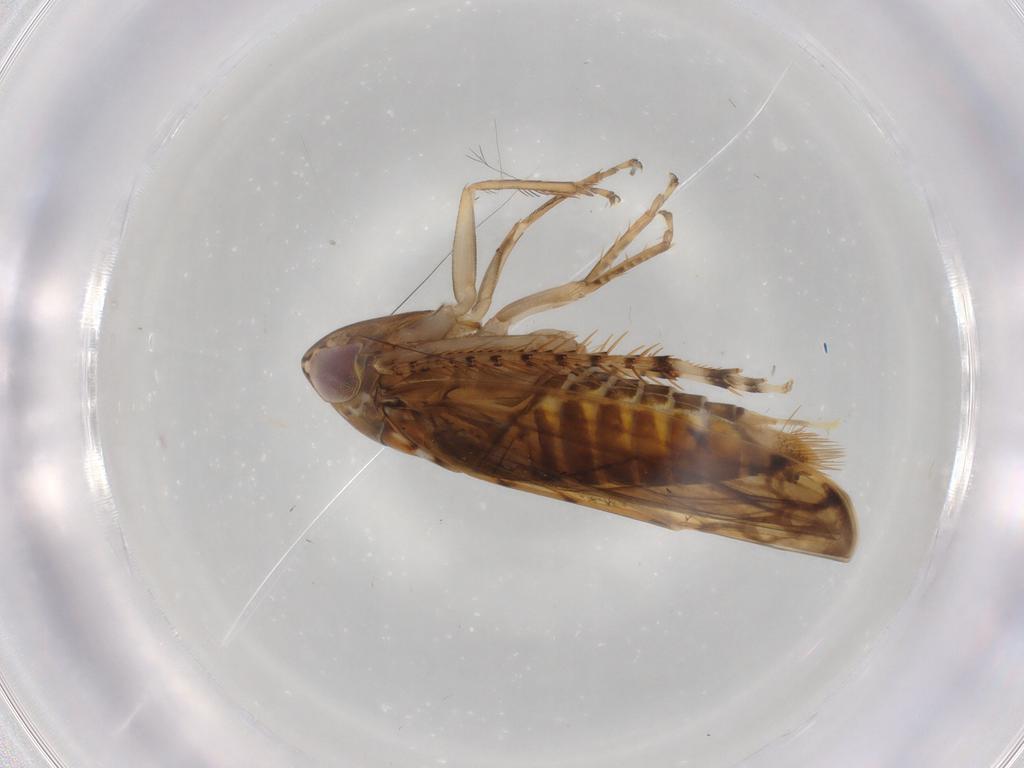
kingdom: Animalia
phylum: Arthropoda
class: Insecta
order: Hemiptera
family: Cicadellidae
